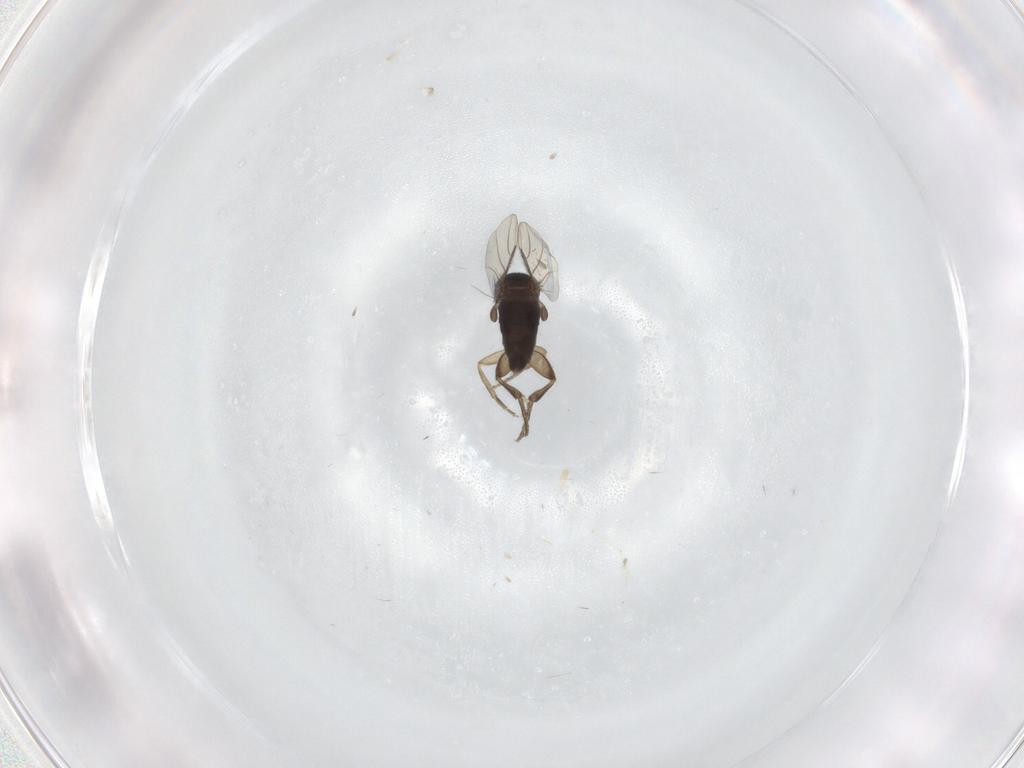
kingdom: Animalia
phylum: Arthropoda
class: Insecta
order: Diptera
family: Phoridae
